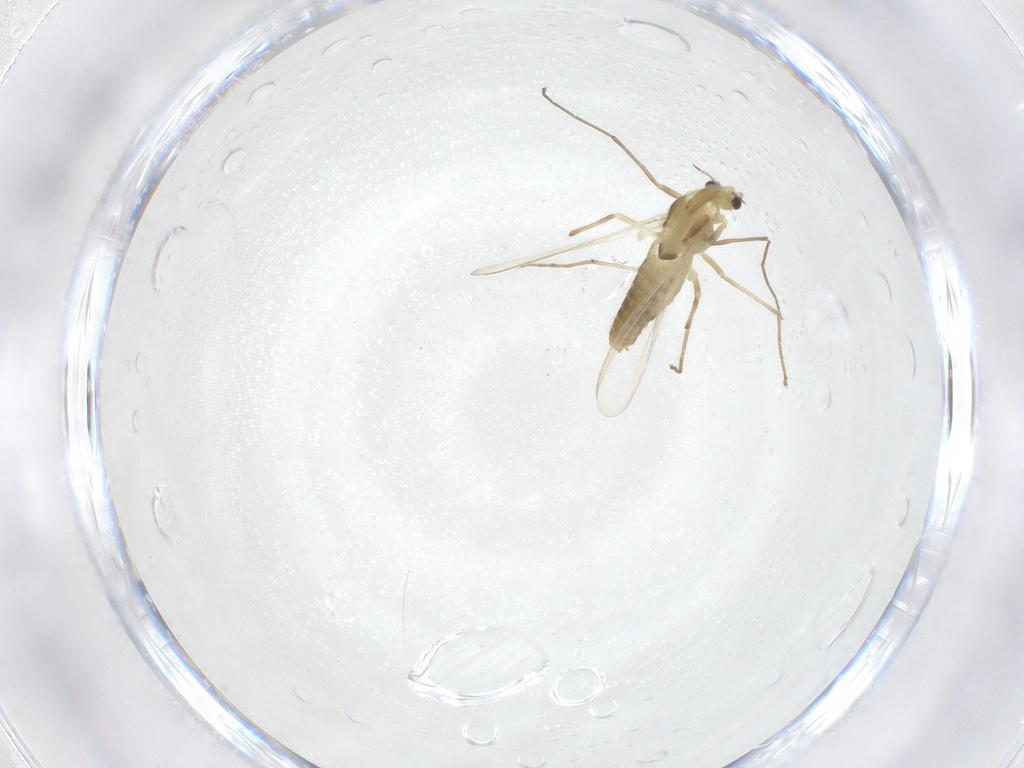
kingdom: Animalia
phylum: Arthropoda
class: Insecta
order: Diptera
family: Chironomidae
